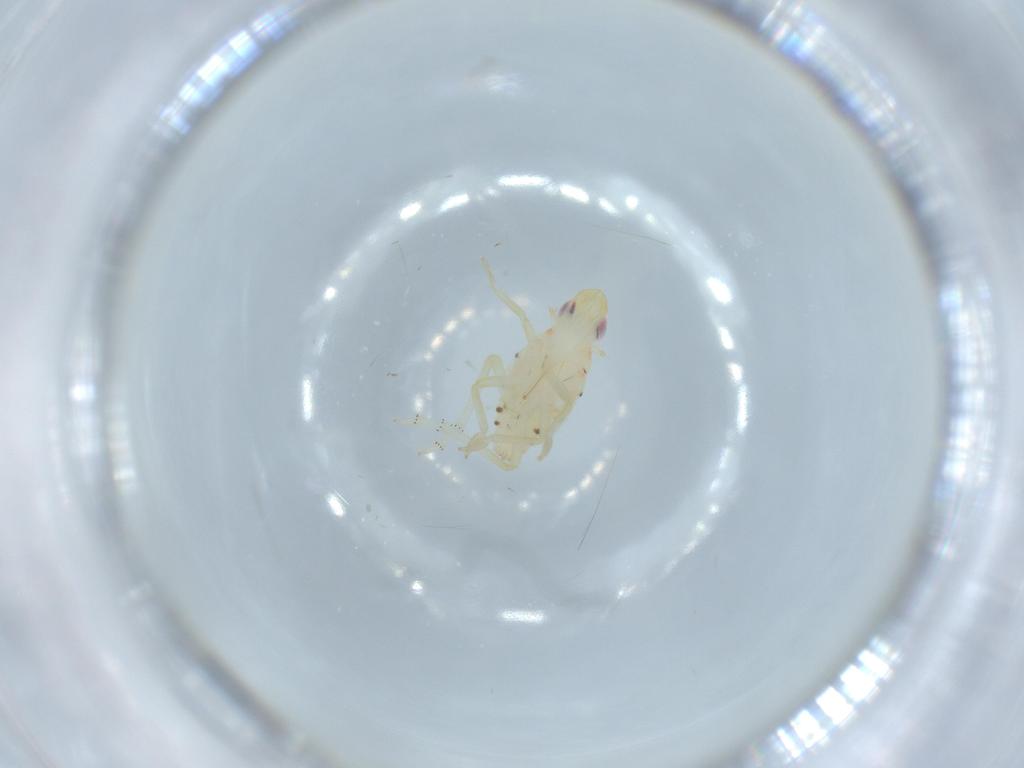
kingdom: Animalia
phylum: Arthropoda
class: Insecta
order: Hemiptera
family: Tropiduchidae
